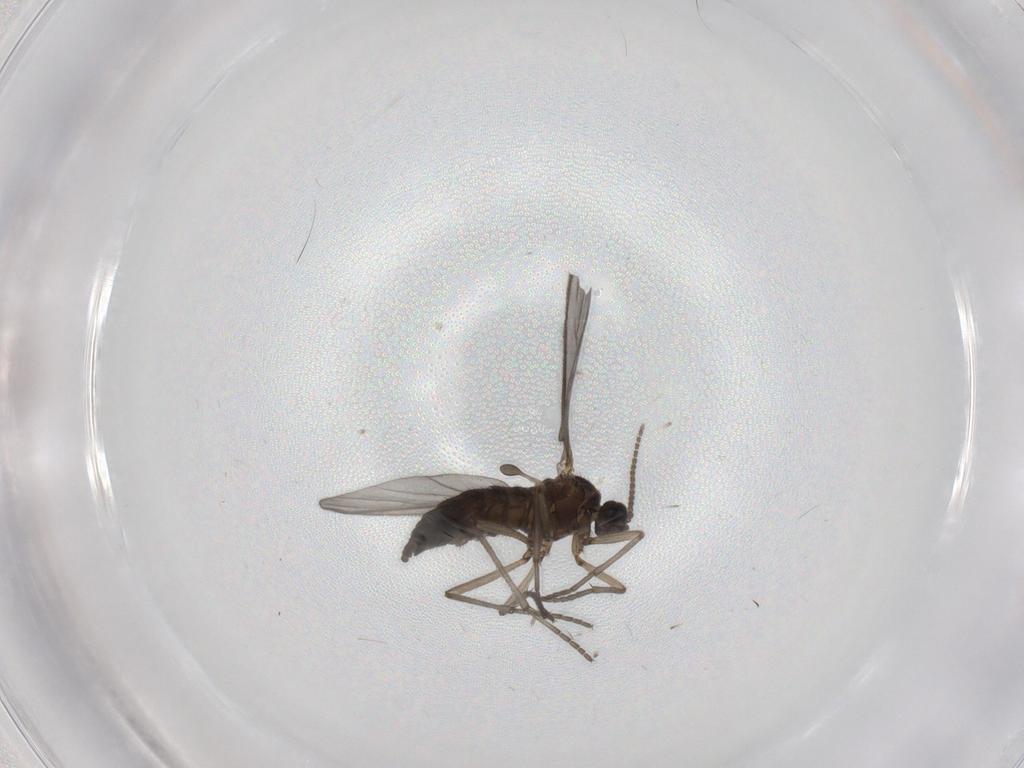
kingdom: Animalia
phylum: Arthropoda
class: Insecta
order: Diptera
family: Sciaridae
